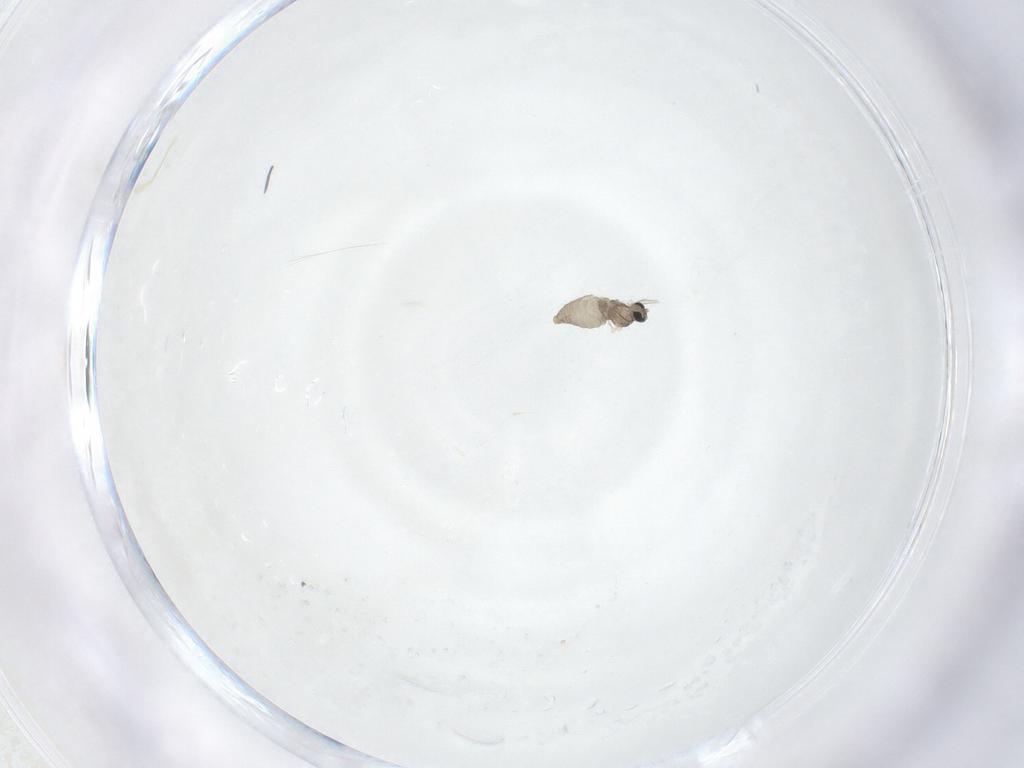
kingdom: Animalia
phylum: Arthropoda
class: Insecta
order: Diptera
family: Cecidomyiidae
